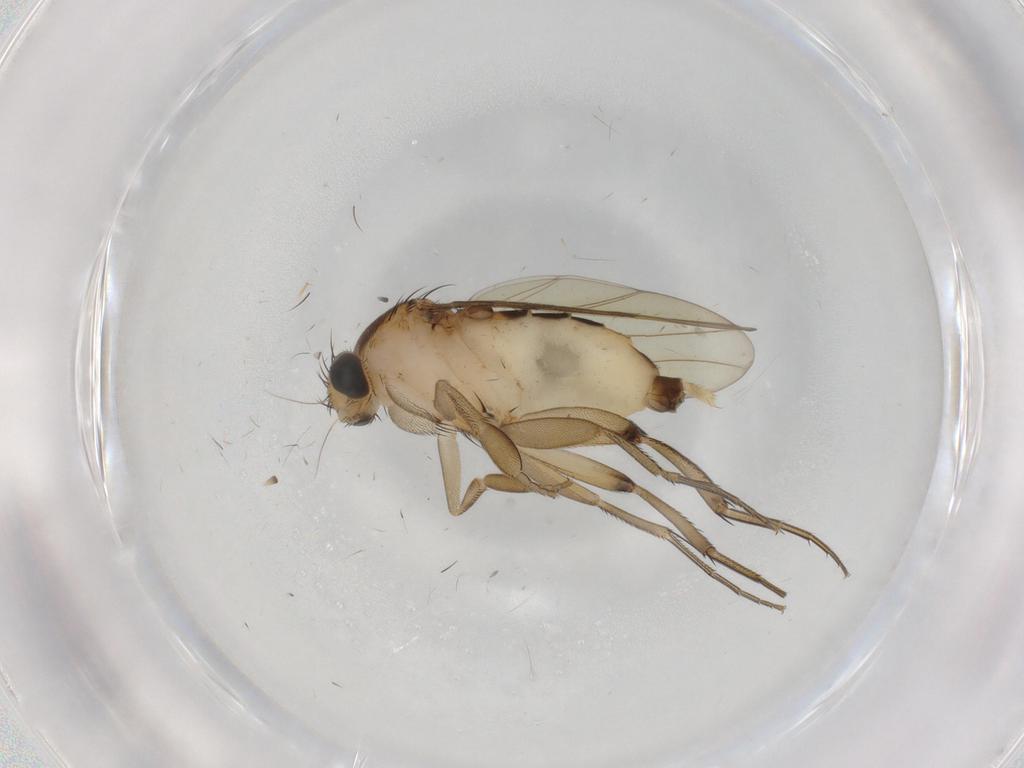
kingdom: Animalia
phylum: Arthropoda
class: Insecta
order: Diptera
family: Sphaeroceridae
